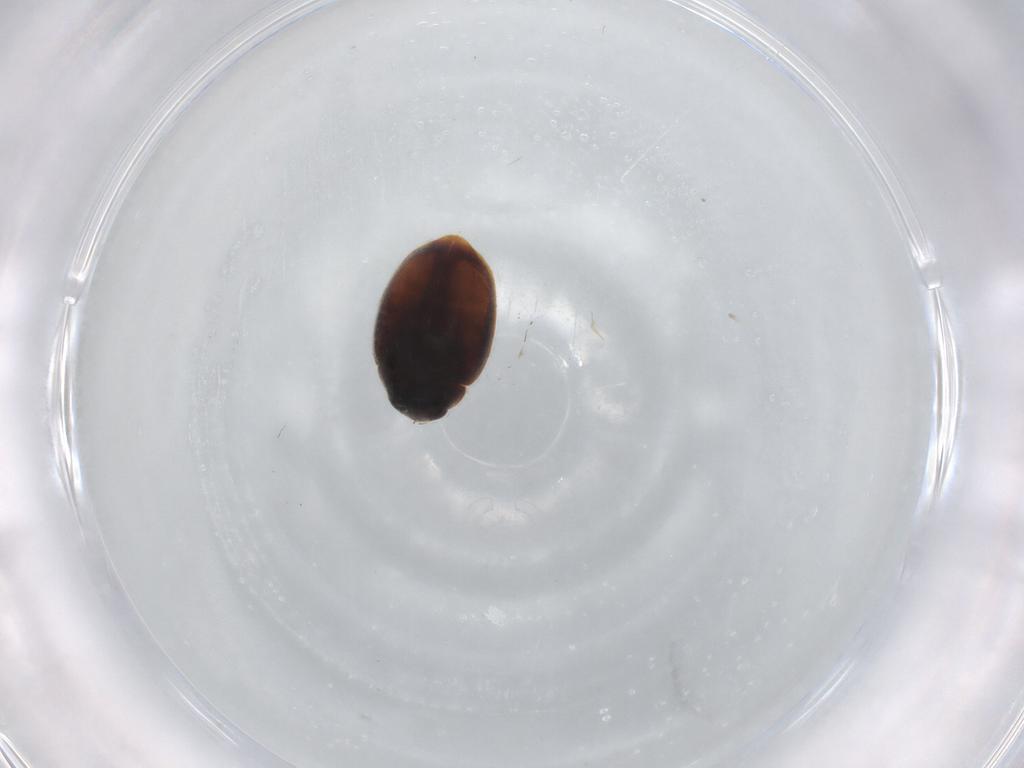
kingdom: Animalia
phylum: Arthropoda
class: Insecta
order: Coleoptera
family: Coccinellidae
